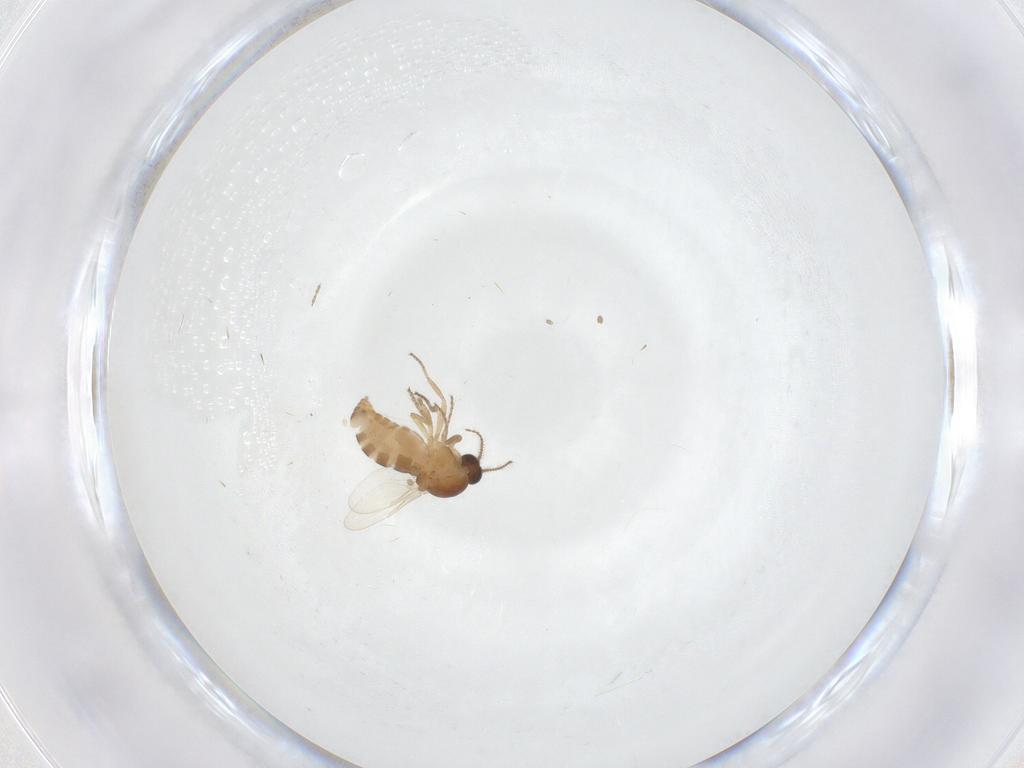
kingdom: Animalia
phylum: Arthropoda
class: Insecta
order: Diptera
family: Ceratopogonidae
